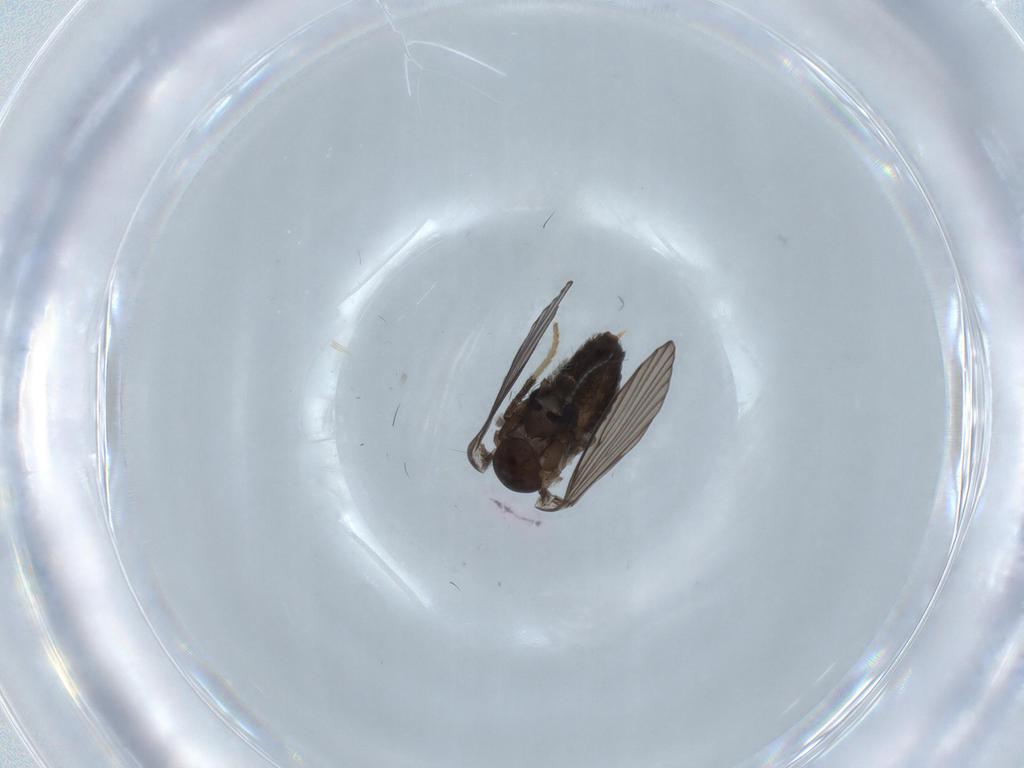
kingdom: Animalia
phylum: Arthropoda
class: Insecta
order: Diptera
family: Psychodidae
